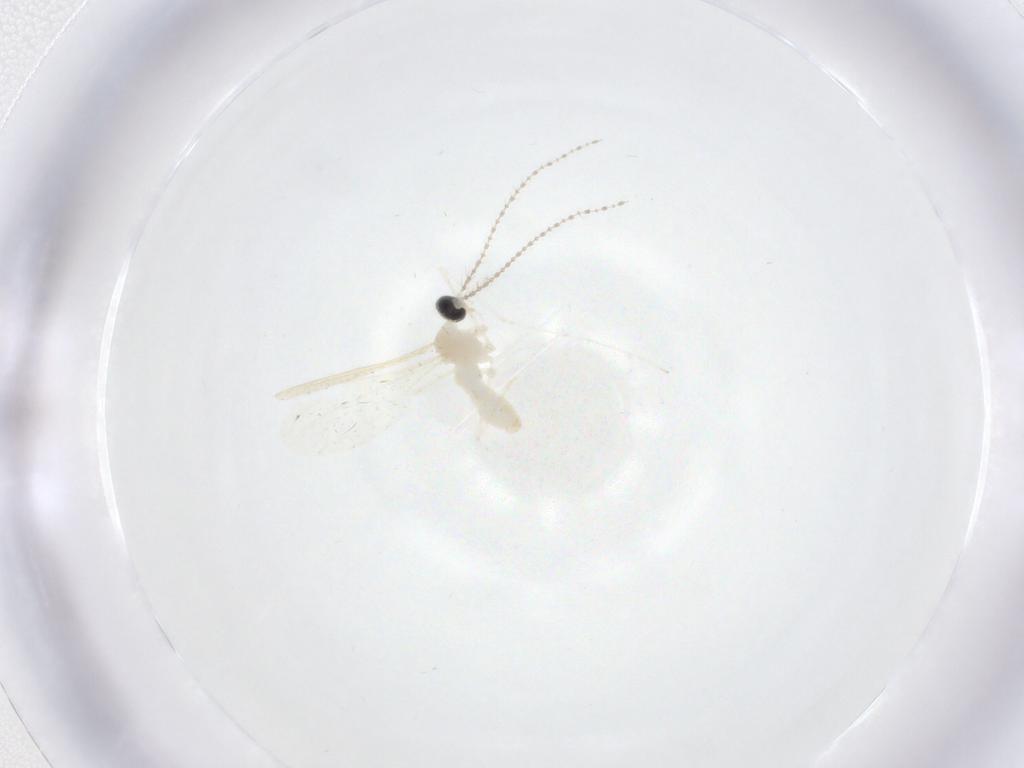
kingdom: Animalia
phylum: Arthropoda
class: Insecta
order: Diptera
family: Cecidomyiidae
